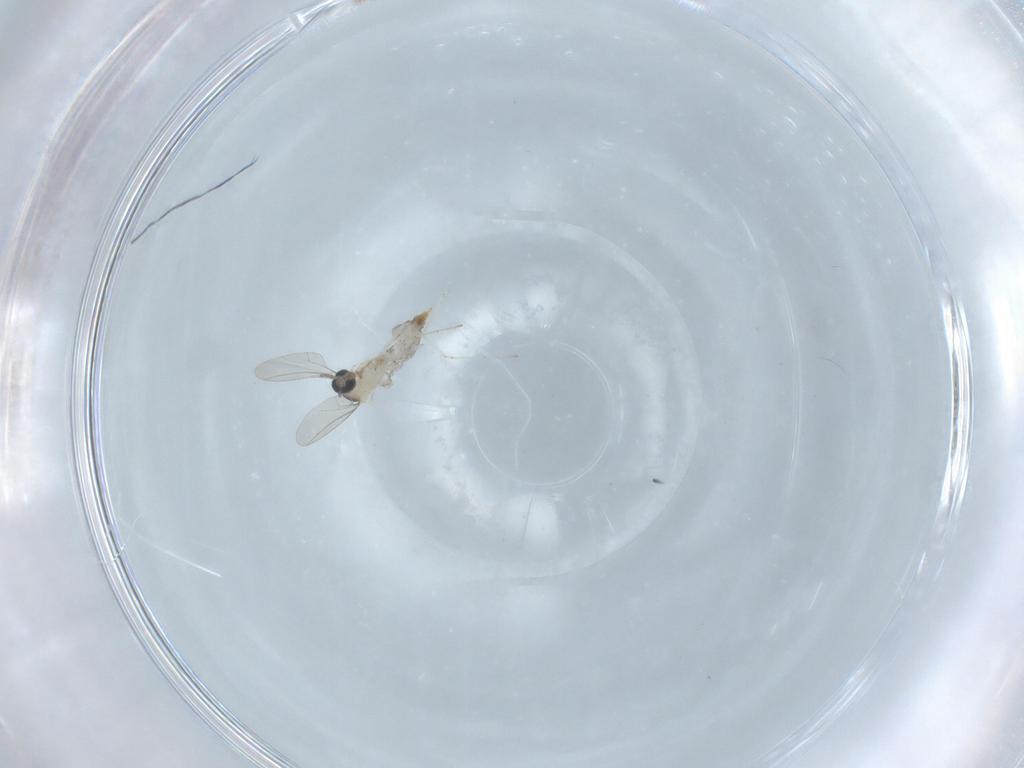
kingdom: Animalia
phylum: Arthropoda
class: Insecta
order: Diptera
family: Cecidomyiidae
